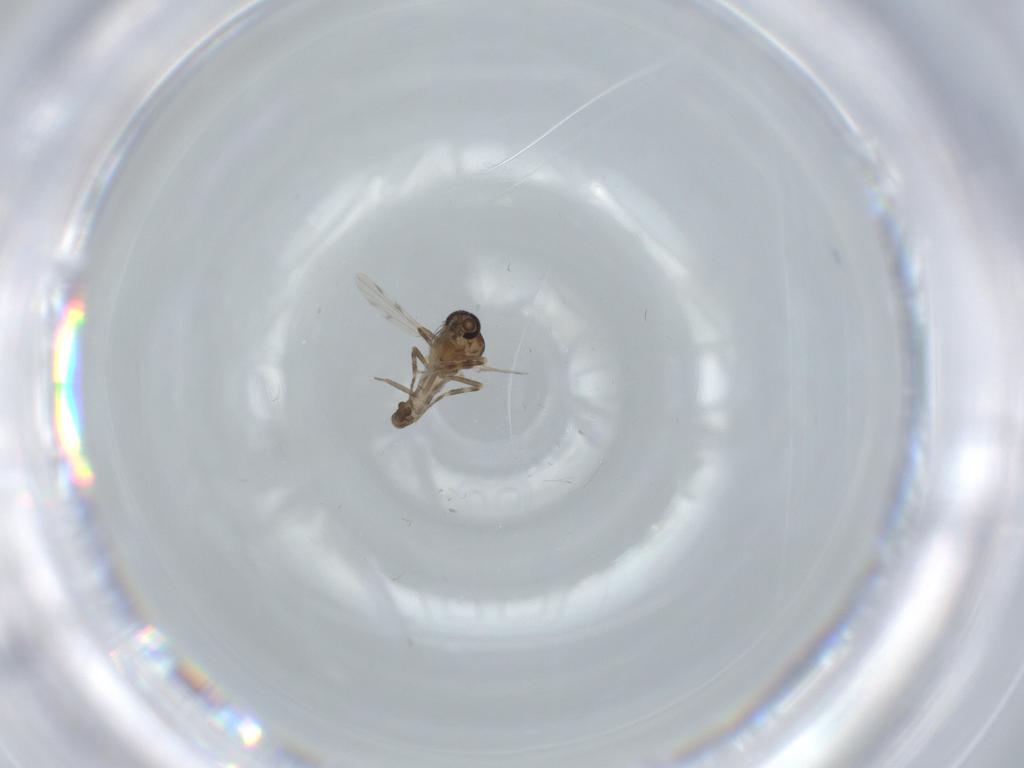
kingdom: Animalia
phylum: Arthropoda
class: Insecta
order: Diptera
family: Ceratopogonidae
